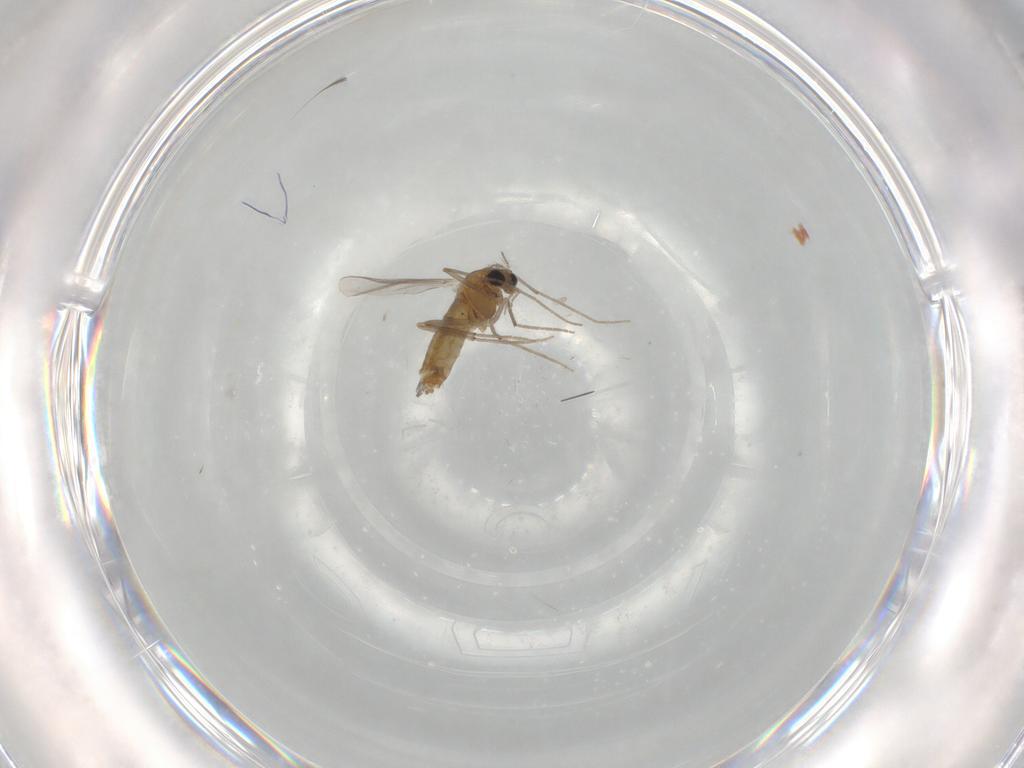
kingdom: Animalia
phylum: Arthropoda
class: Insecta
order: Diptera
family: Chironomidae
